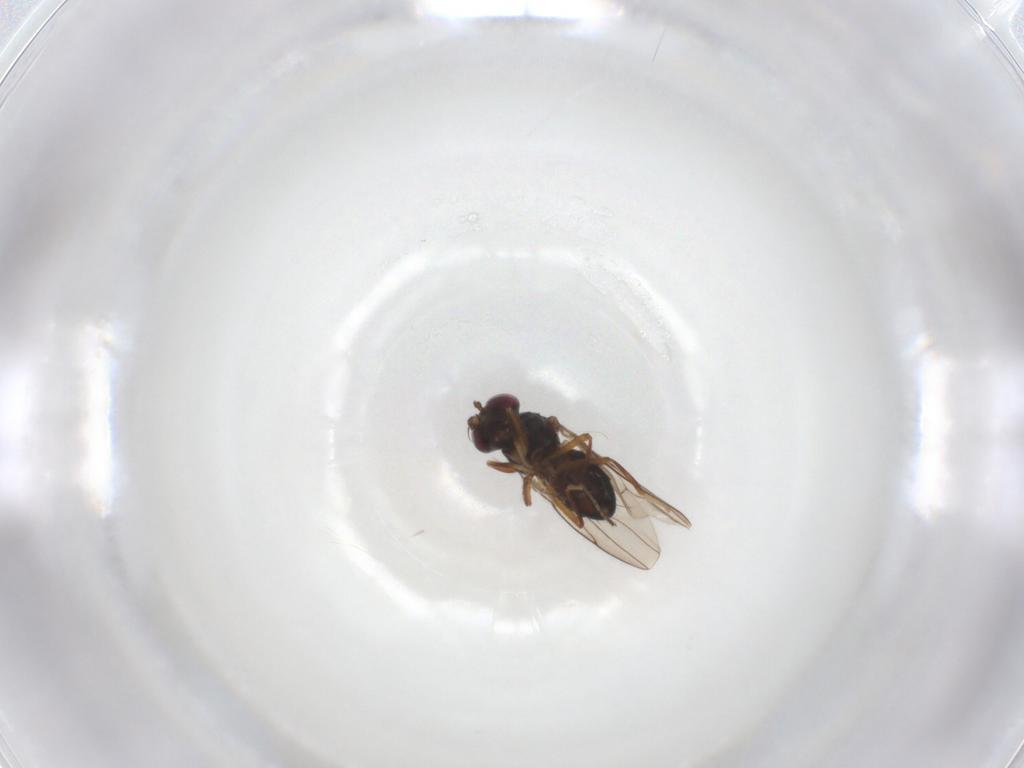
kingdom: Animalia
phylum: Arthropoda
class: Insecta
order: Diptera
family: Ephydridae
